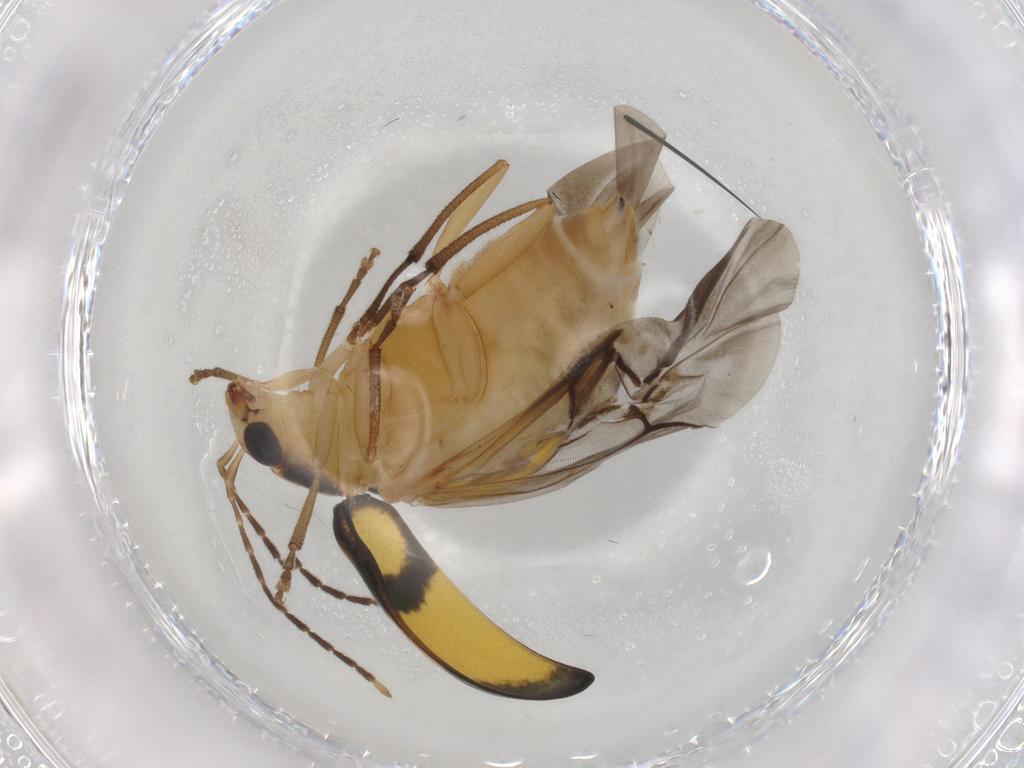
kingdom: Animalia
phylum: Arthropoda
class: Insecta
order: Coleoptera
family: Chrysomelidae
